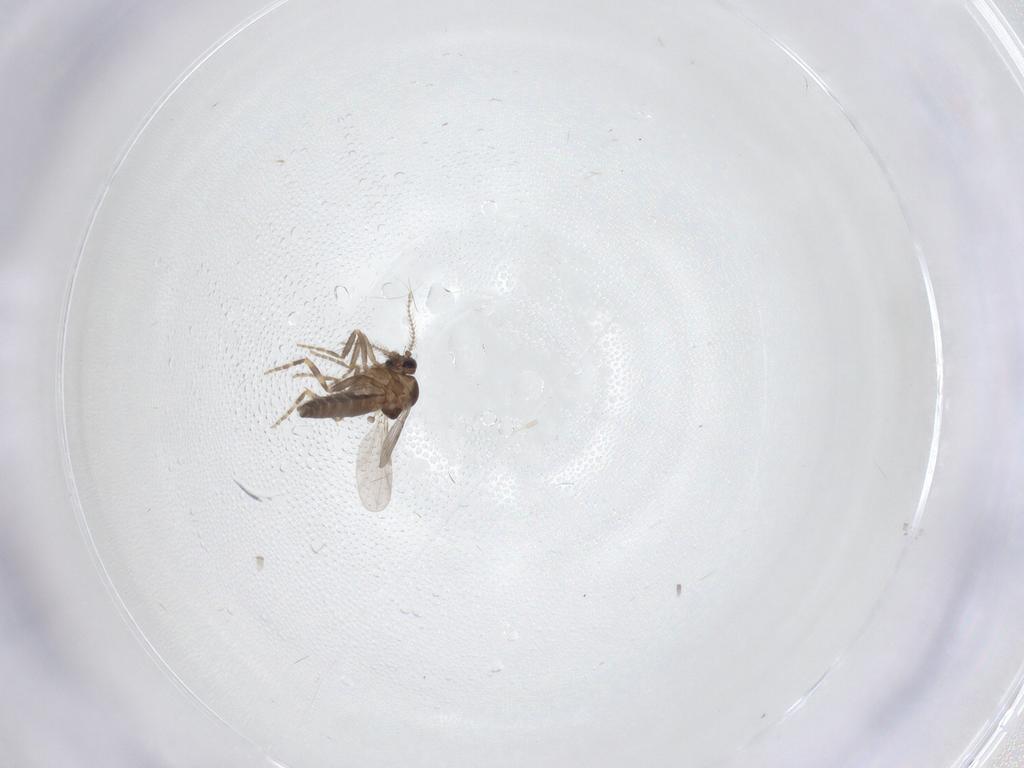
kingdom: Animalia
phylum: Arthropoda
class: Insecta
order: Diptera
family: Ceratopogonidae
